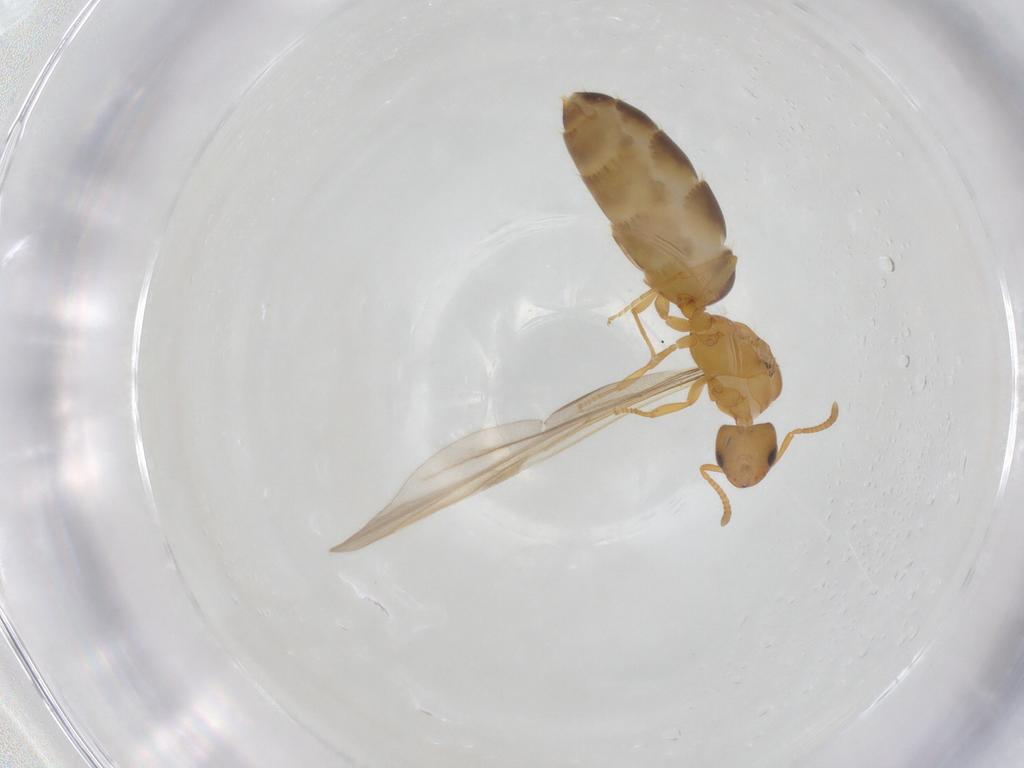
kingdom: Animalia
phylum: Arthropoda
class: Insecta
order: Hymenoptera
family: Formicidae
